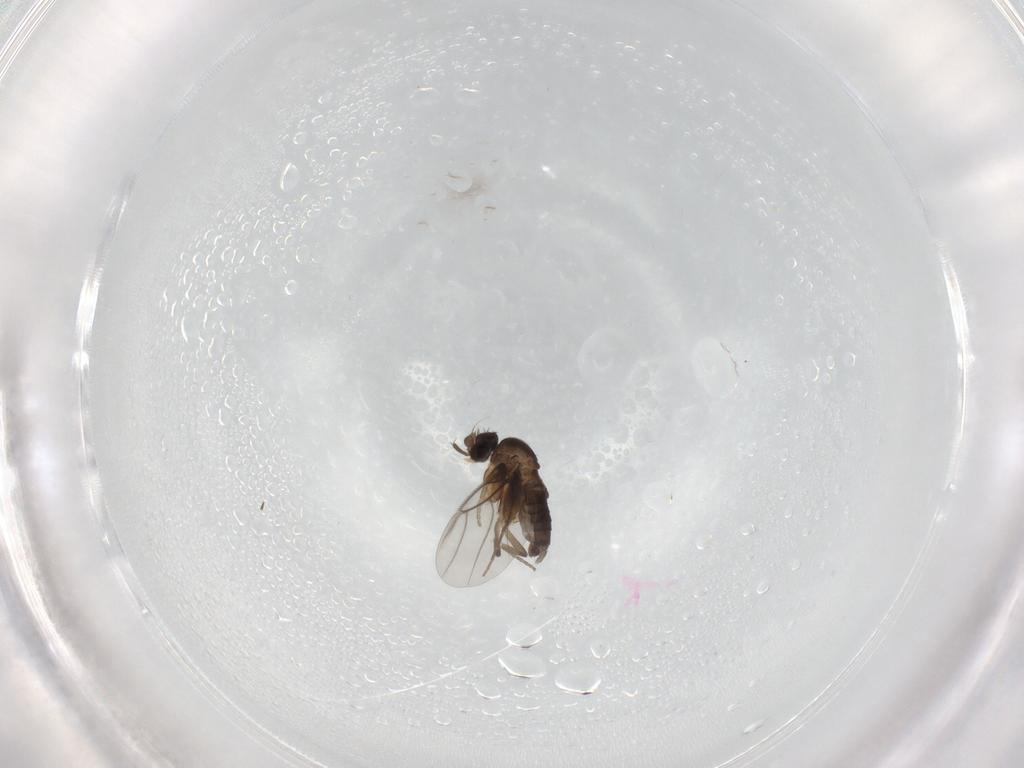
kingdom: Animalia
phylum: Arthropoda
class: Insecta
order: Diptera
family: Phoridae
